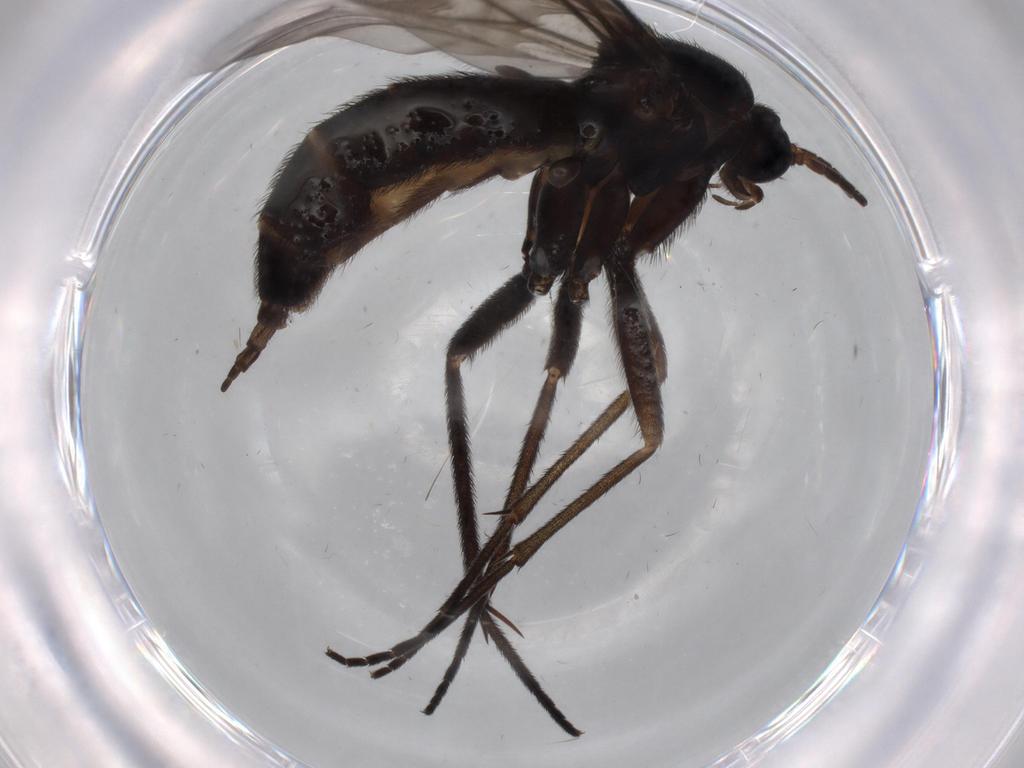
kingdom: Animalia
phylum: Arthropoda
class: Insecta
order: Diptera
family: Sciaridae
